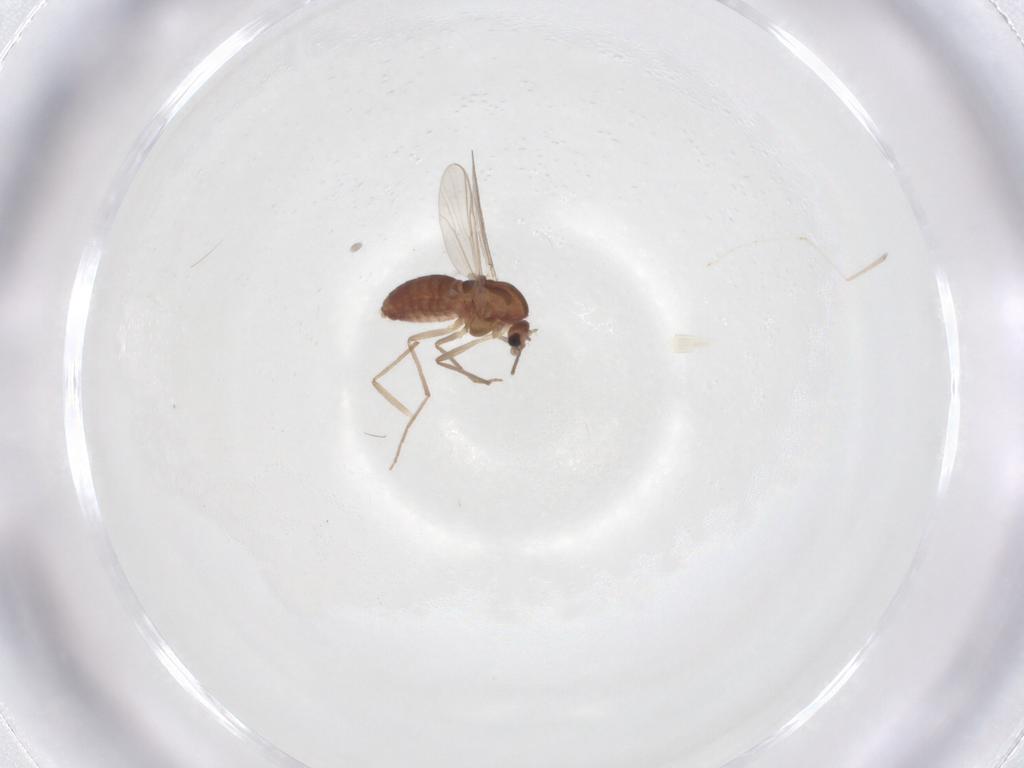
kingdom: Animalia
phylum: Arthropoda
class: Insecta
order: Diptera
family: Chironomidae
